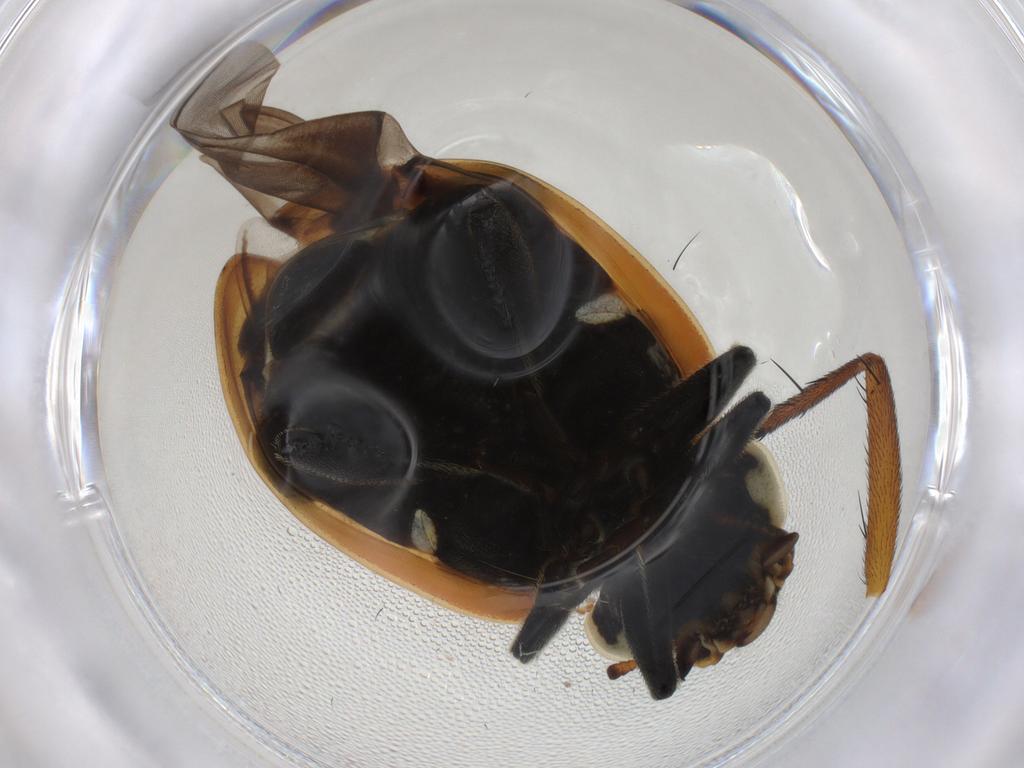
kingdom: Animalia
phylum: Arthropoda
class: Insecta
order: Coleoptera
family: Coccinellidae
